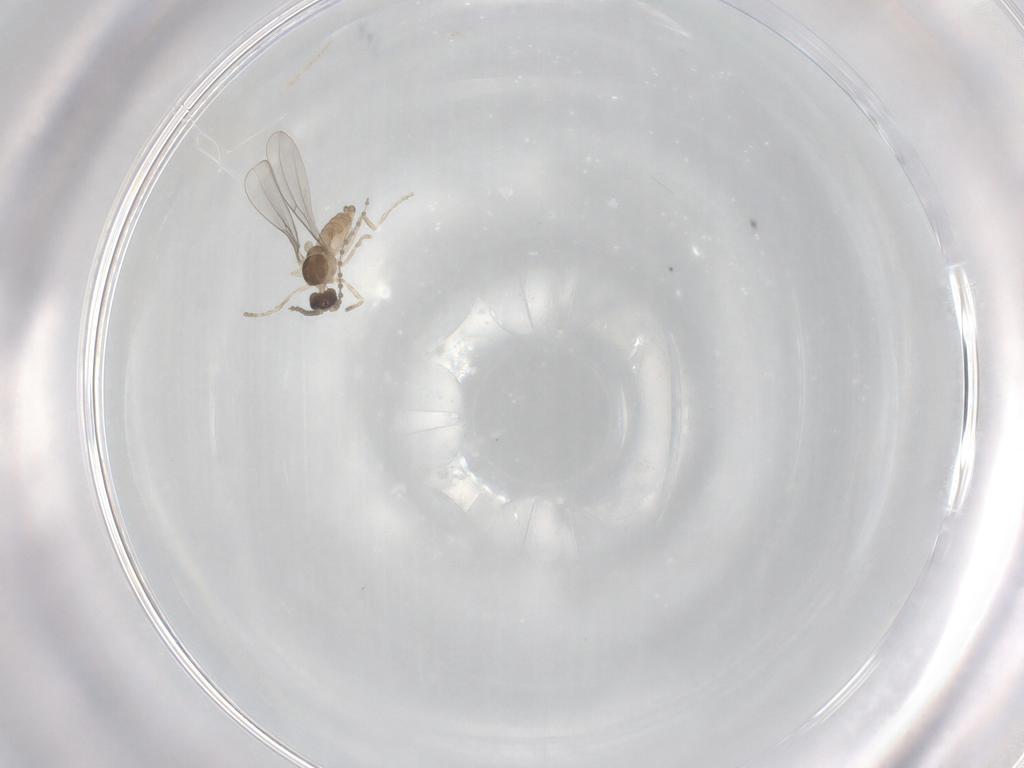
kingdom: Animalia
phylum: Arthropoda
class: Insecta
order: Diptera
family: Cecidomyiidae
